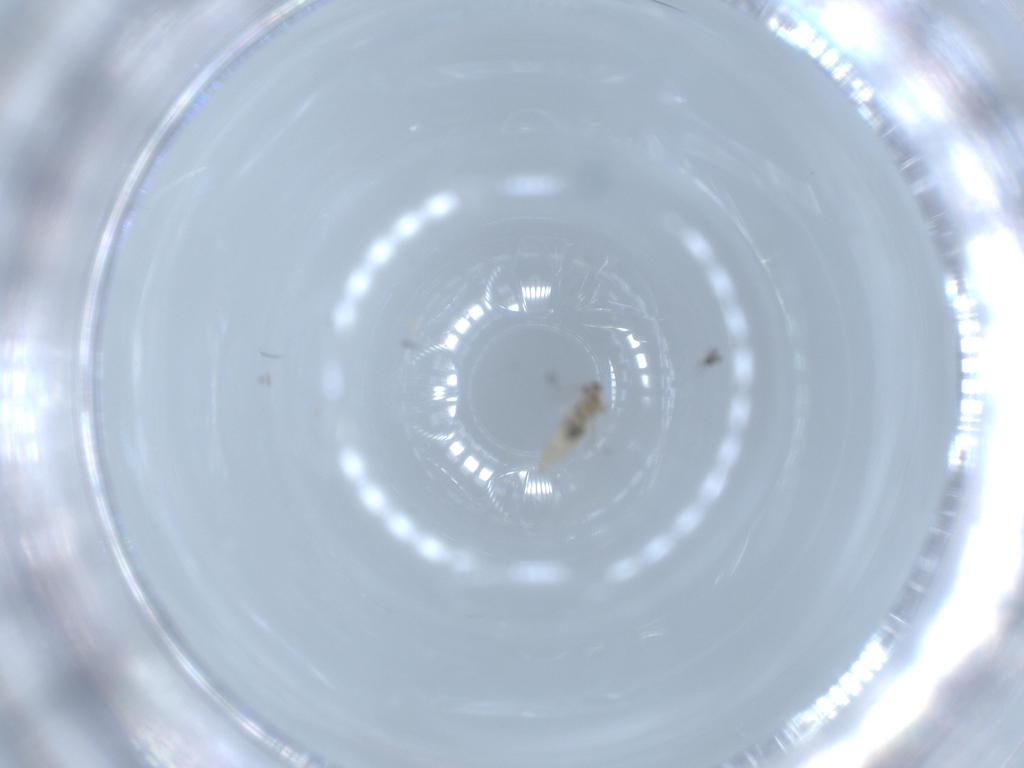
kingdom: Animalia
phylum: Arthropoda
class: Insecta
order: Diptera
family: Cecidomyiidae
